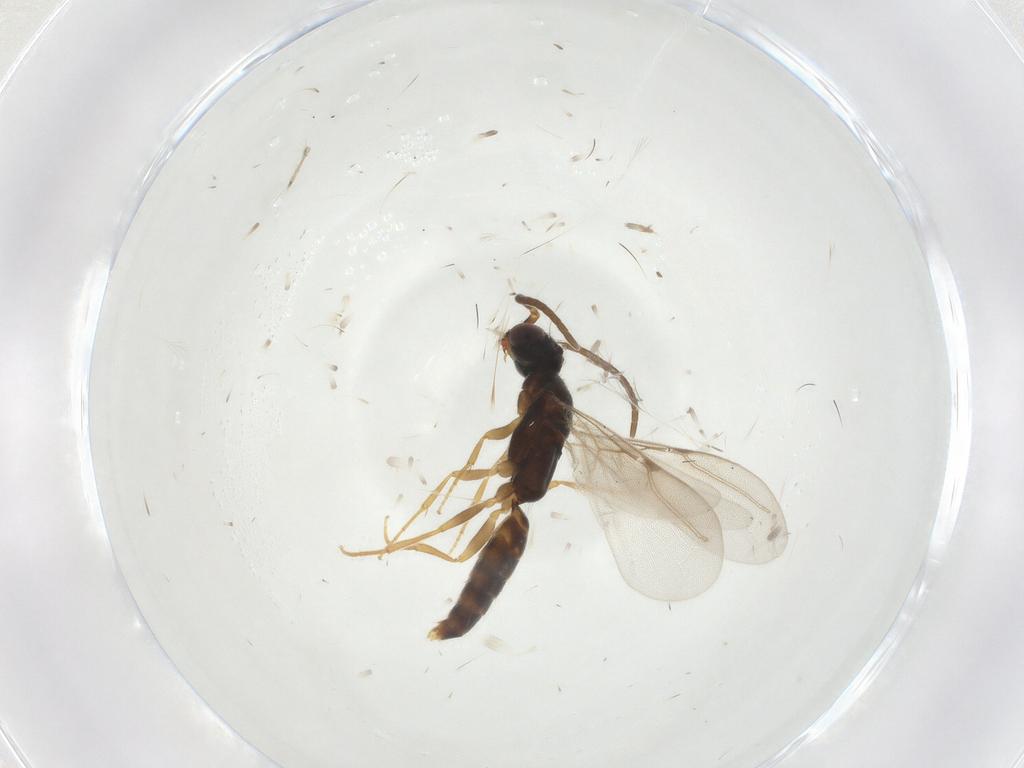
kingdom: Animalia
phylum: Arthropoda
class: Insecta
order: Hymenoptera
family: Bethylidae
